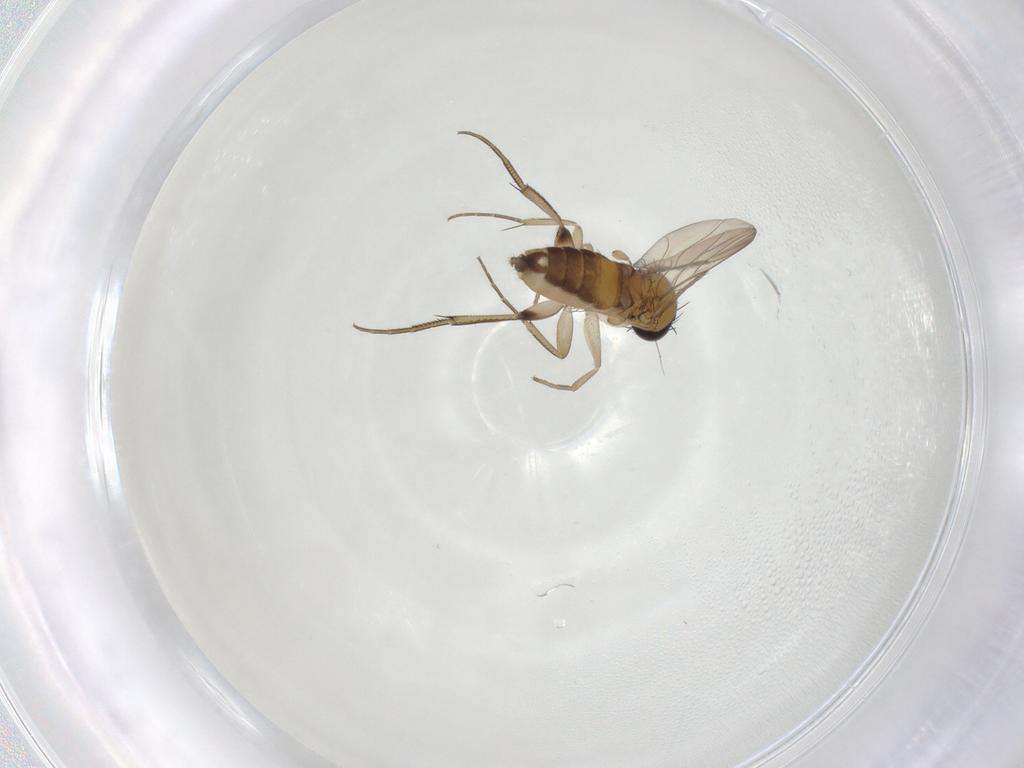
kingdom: Animalia
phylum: Arthropoda
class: Insecta
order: Diptera
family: Phoridae
